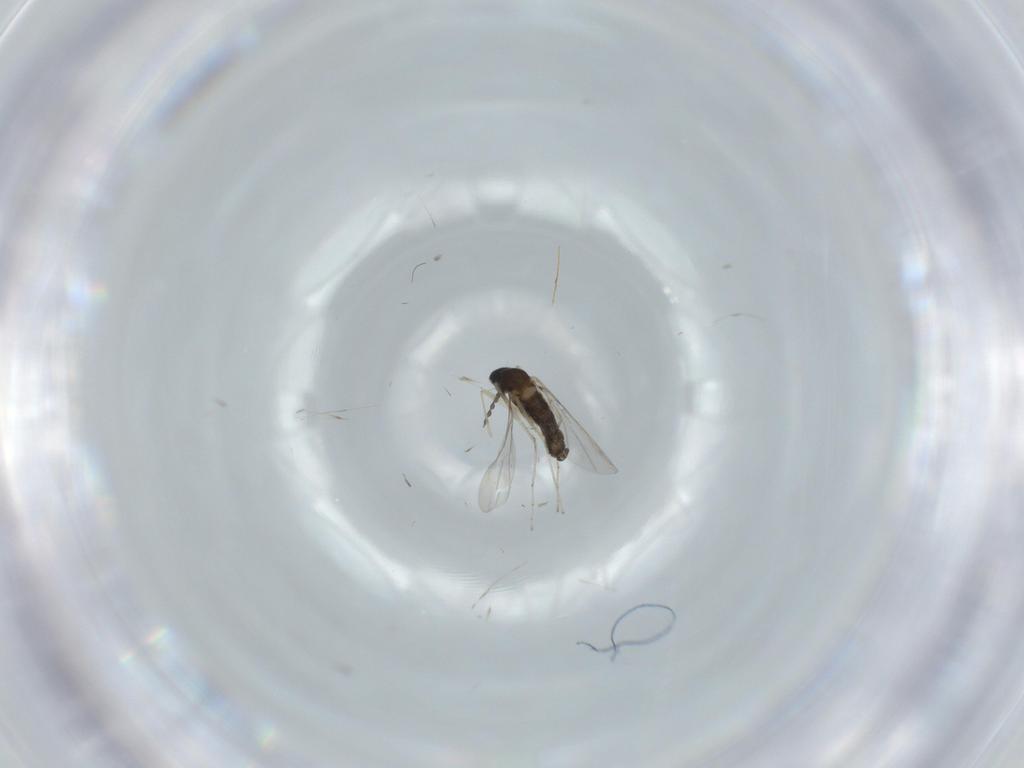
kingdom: Animalia
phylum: Arthropoda
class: Insecta
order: Diptera
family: Cecidomyiidae
